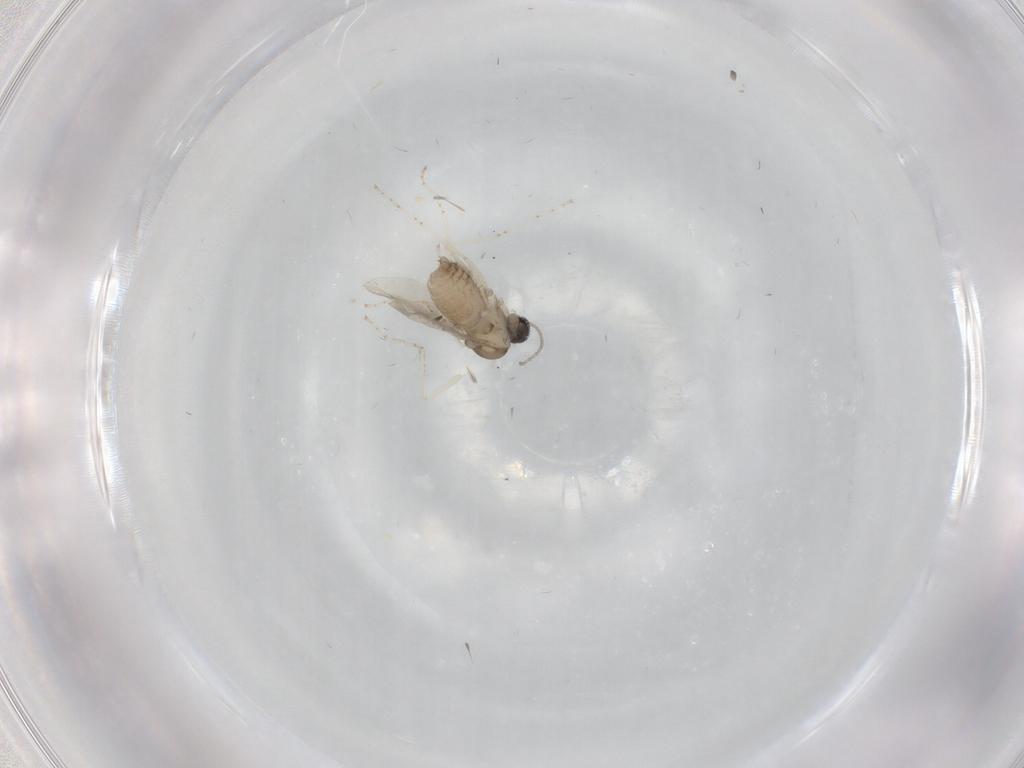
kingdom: Animalia
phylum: Arthropoda
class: Insecta
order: Diptera
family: Cecidomyiidae
